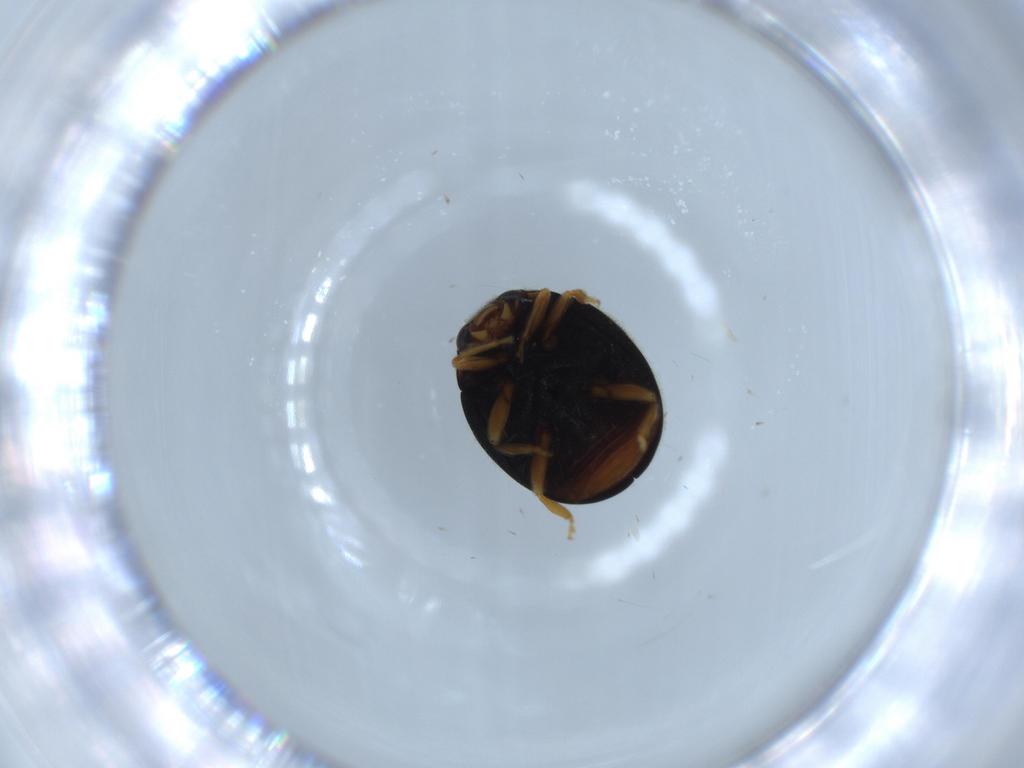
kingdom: Animalia
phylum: Arthropoda
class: Insecta
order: Coleoptera
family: Coccinellidae
